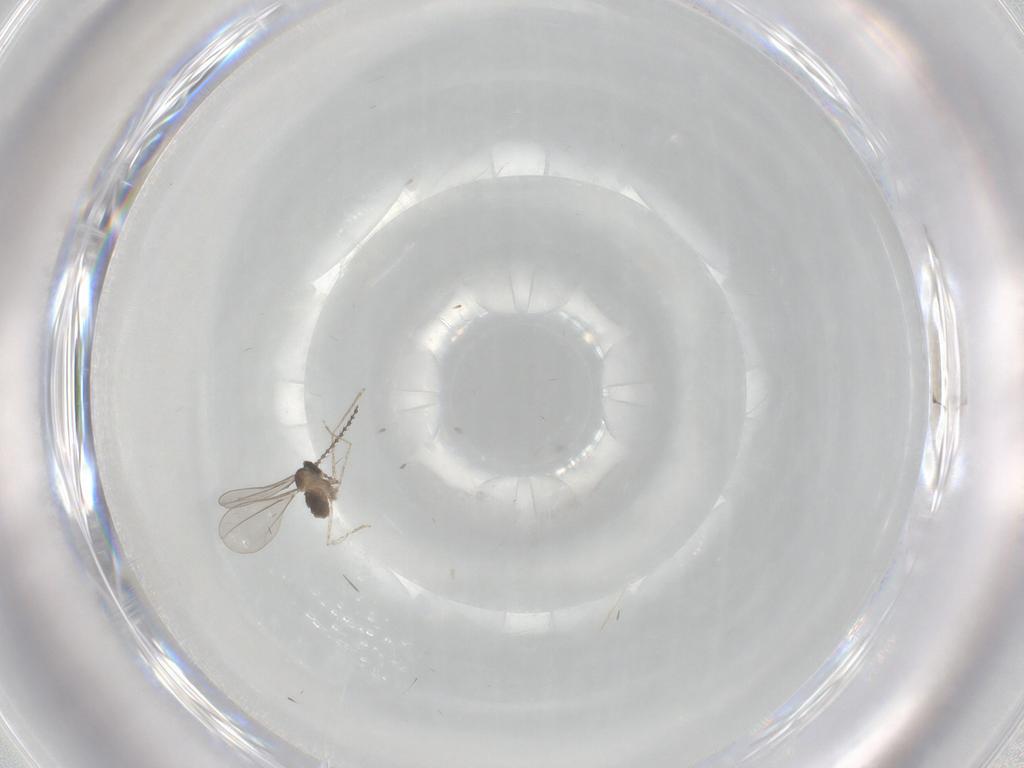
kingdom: Animalia
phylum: Arthropoda
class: Insecta
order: Diptera
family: Cecidomyiidae
